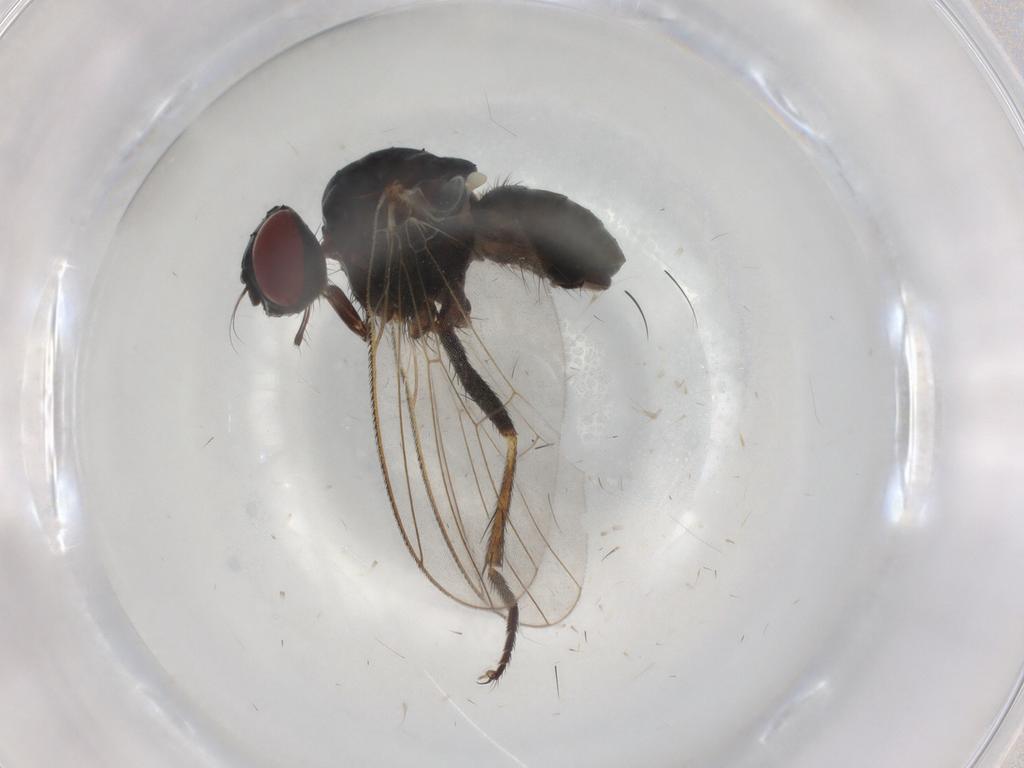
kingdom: Animalia
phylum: Arthropoda
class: Insecta
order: Diptera
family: Muscidae
